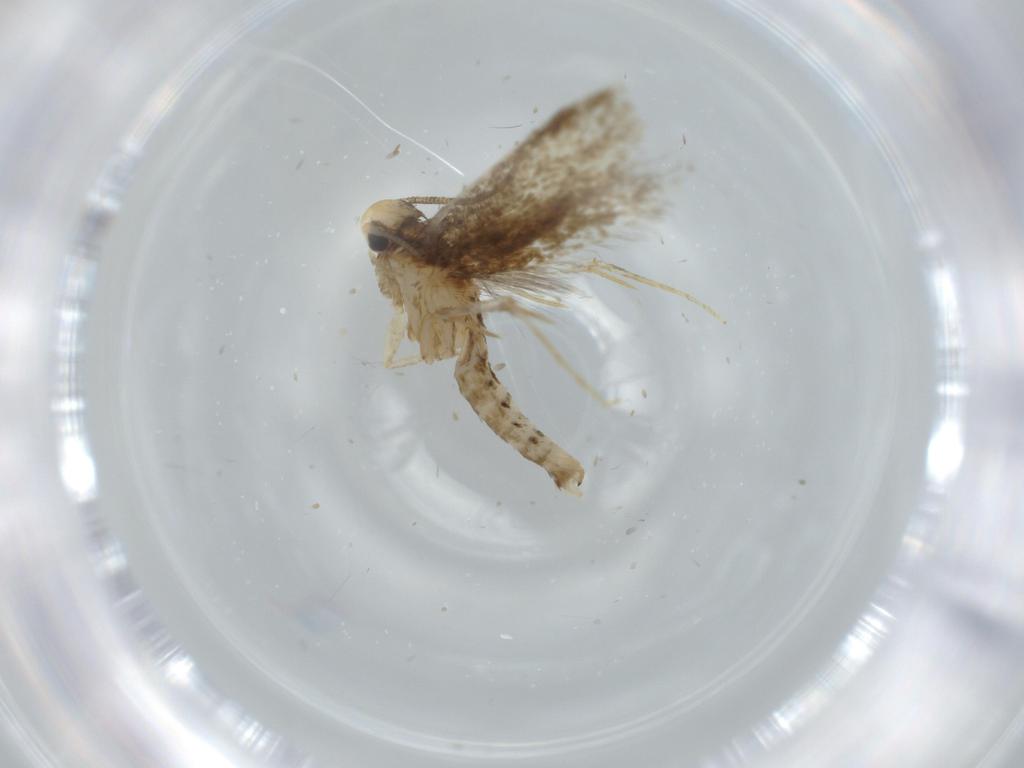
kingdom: Animalia
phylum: Arthropoda
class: Insecta
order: Lepidoptera
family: Tineidae
